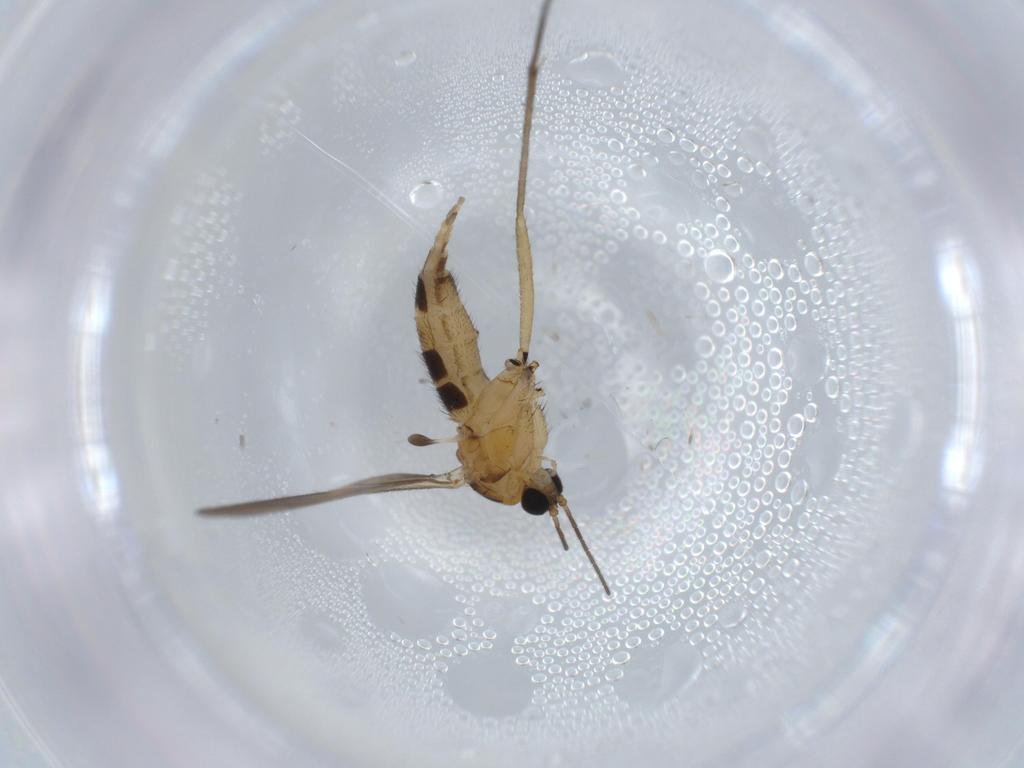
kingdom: Animalia
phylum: Arthropoda
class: Insecta
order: Diptera
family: Sciaridae
